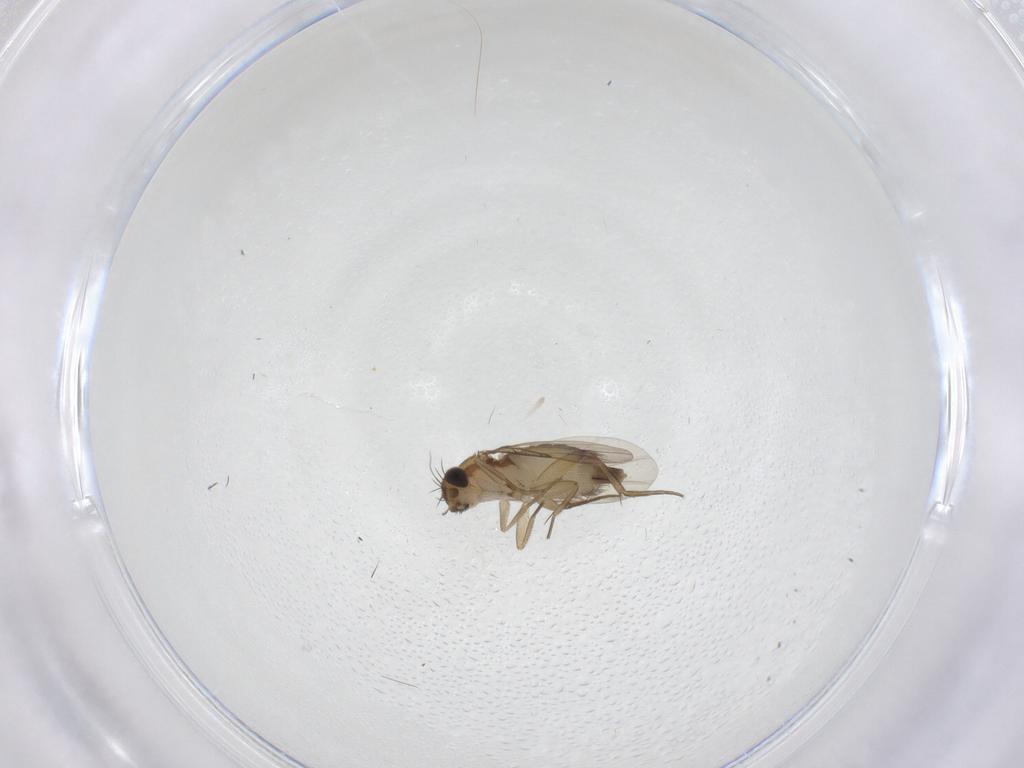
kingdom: Animalia
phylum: Arthropoda
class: Insecta
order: Diptera
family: Phoridae
